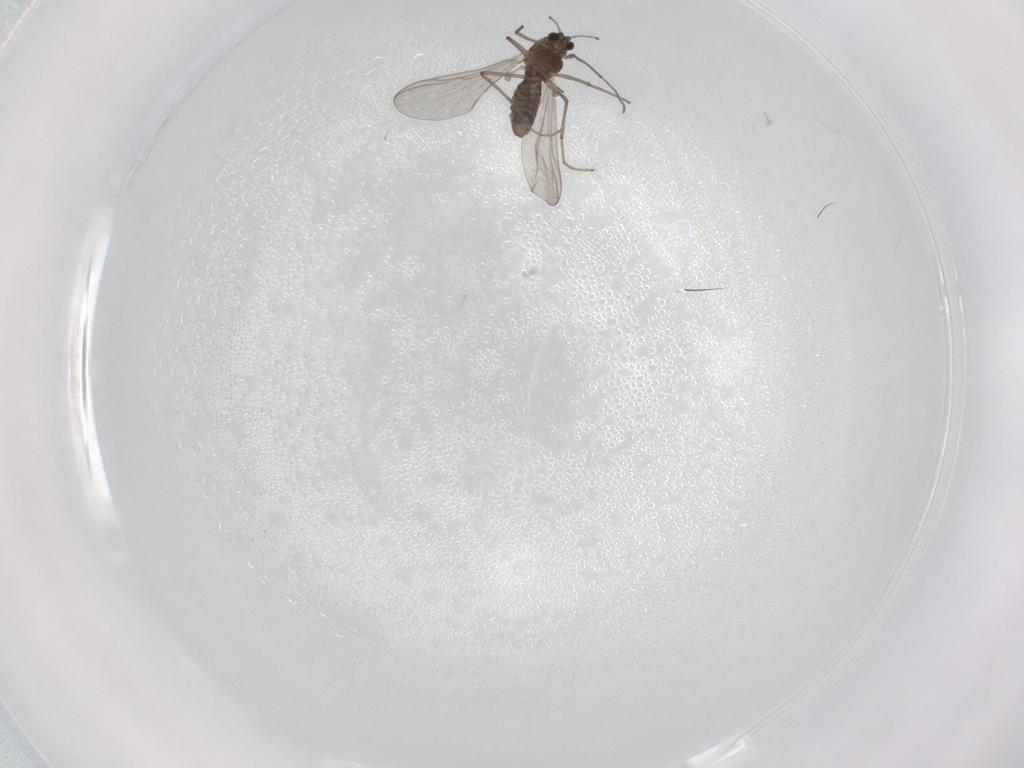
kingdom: Animalia
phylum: Arthropoda
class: Insecta
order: Diptera
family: Chironomidae
